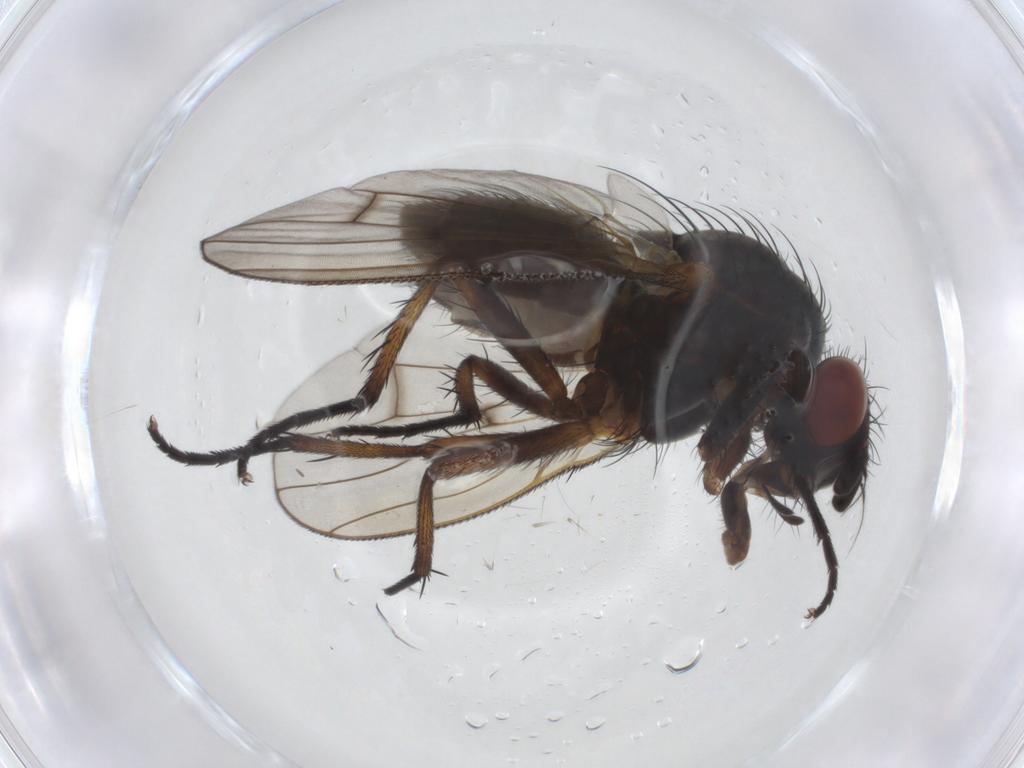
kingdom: Animalia
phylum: Arthropoda
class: Insecta
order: Diptera
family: Anthomyiidae
